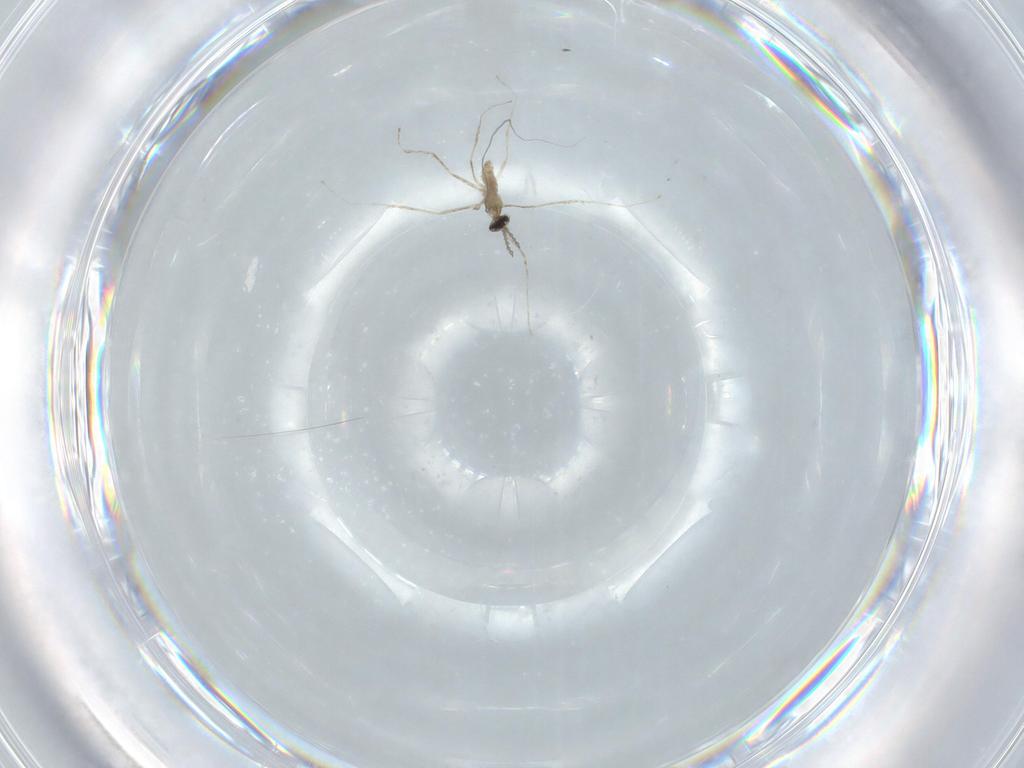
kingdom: Animalia
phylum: Arthropoda
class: Insecta
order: Diptera
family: Cecidomyiidae
